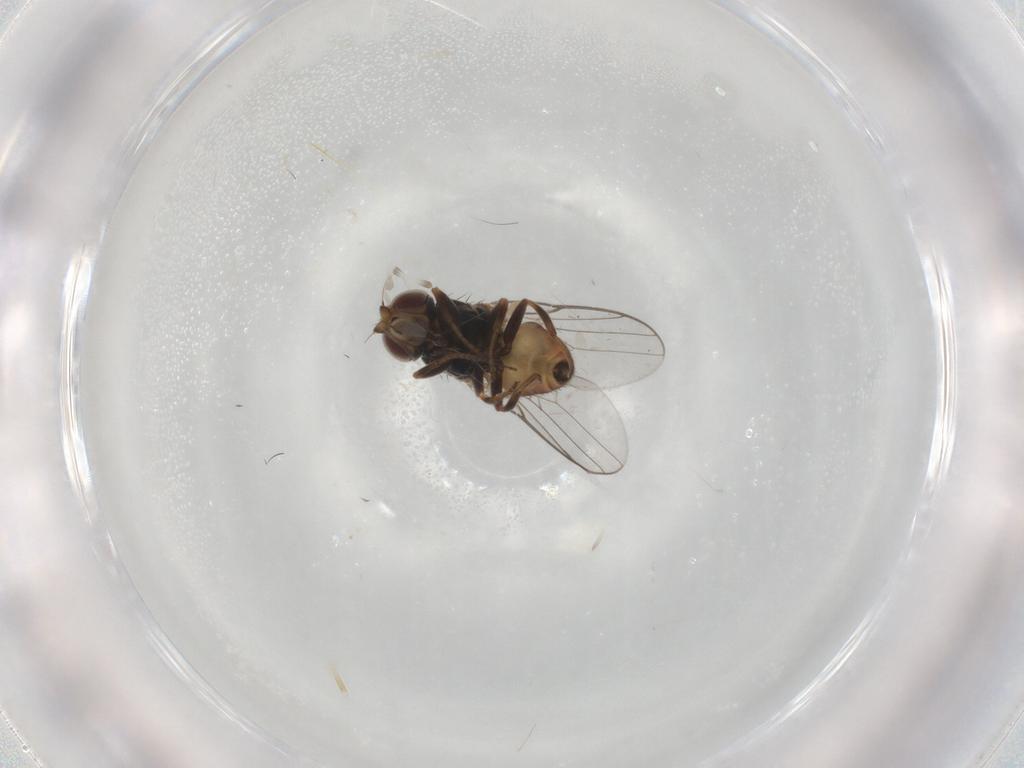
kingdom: Animalia
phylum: Arthropoda
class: Insecta
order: Diptera
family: Chloropidae
